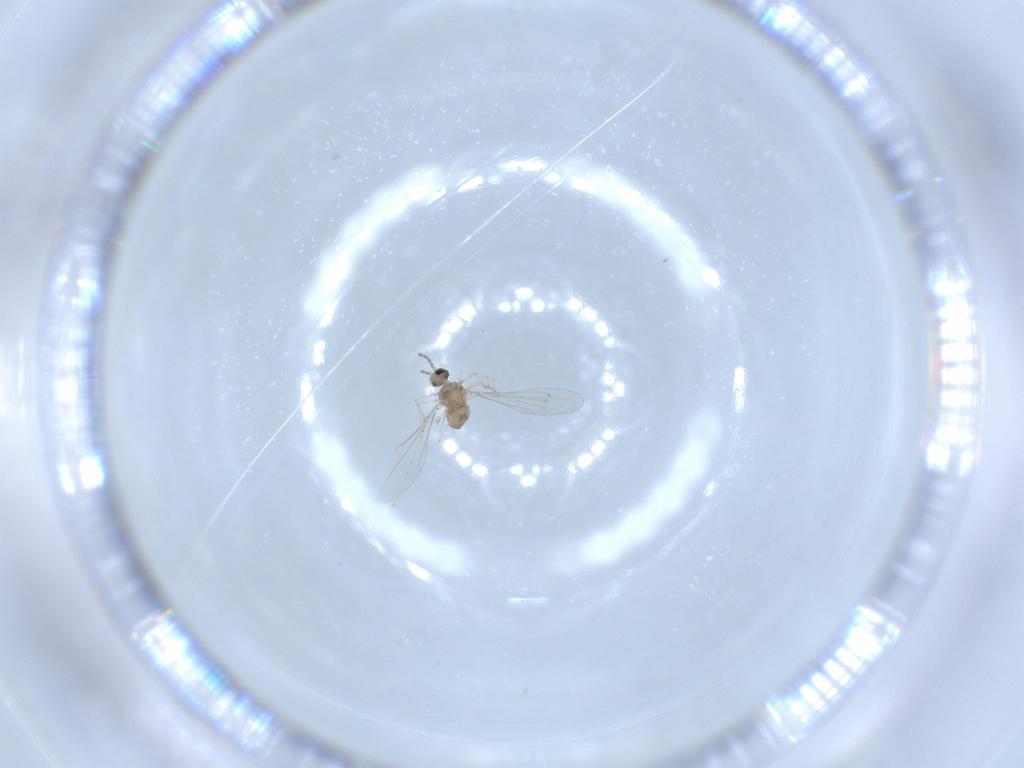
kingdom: Animalia
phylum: Arthropoda
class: Insecta
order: Diptera
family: Cecidomyiidae
